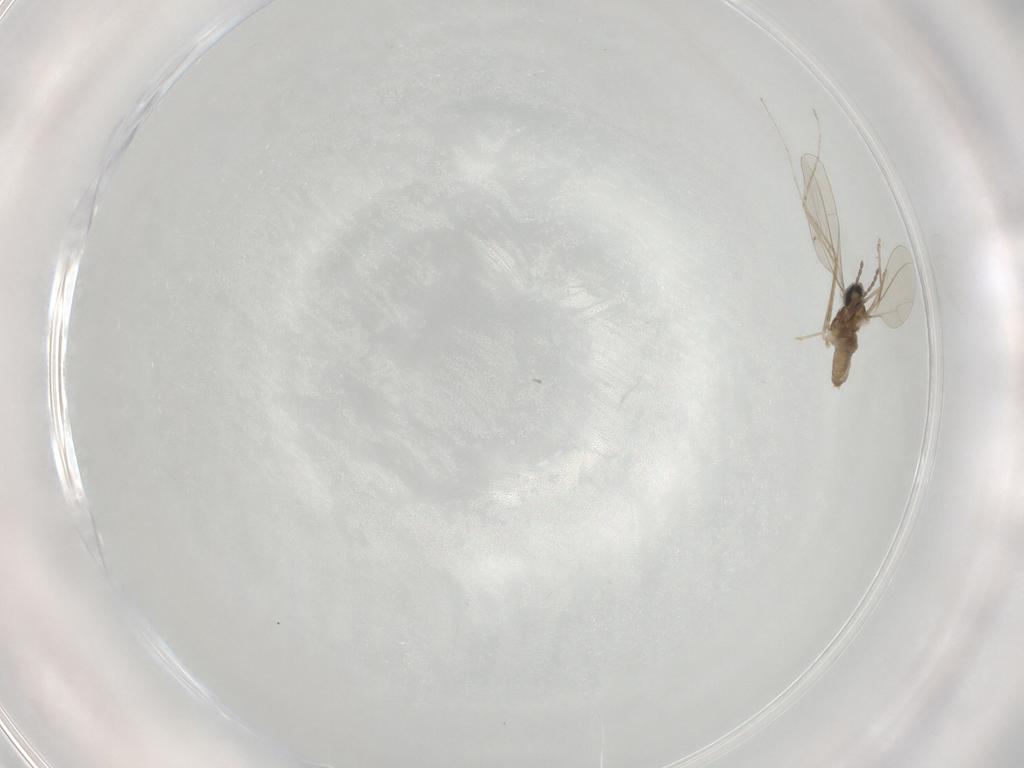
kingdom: Animalia
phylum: Arthropoda
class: Insecta
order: Diptera
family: Cecidomyiidae
